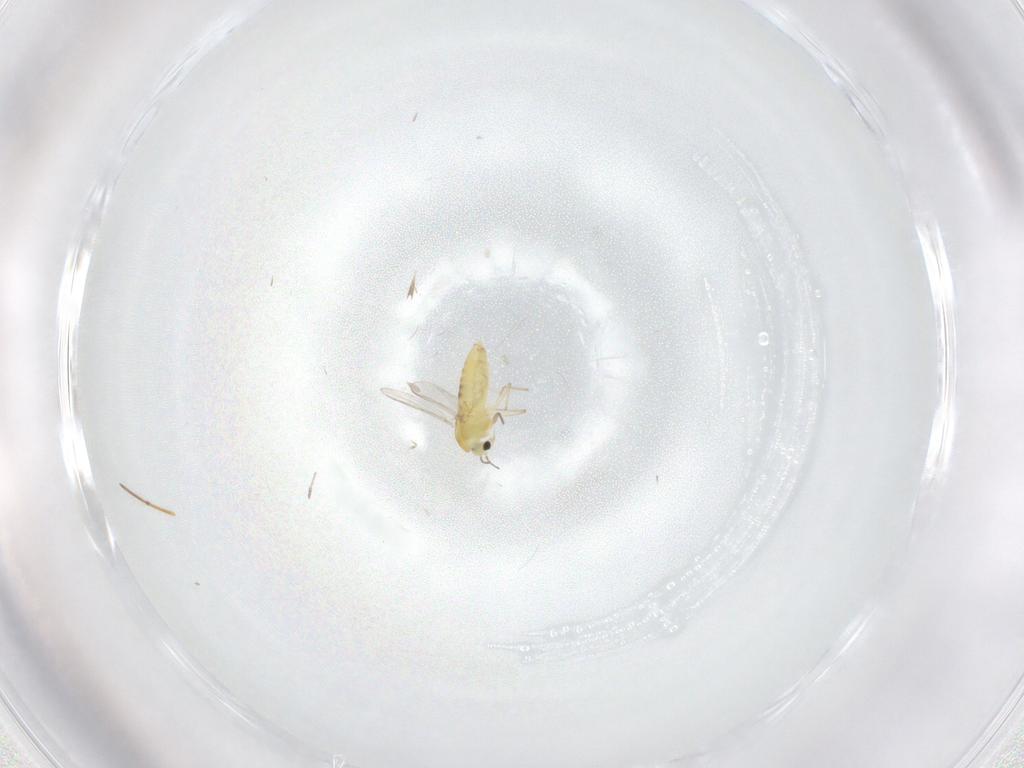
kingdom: Animalia
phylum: Arthropoda
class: Insecta
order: Diptera
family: Chironomidae
